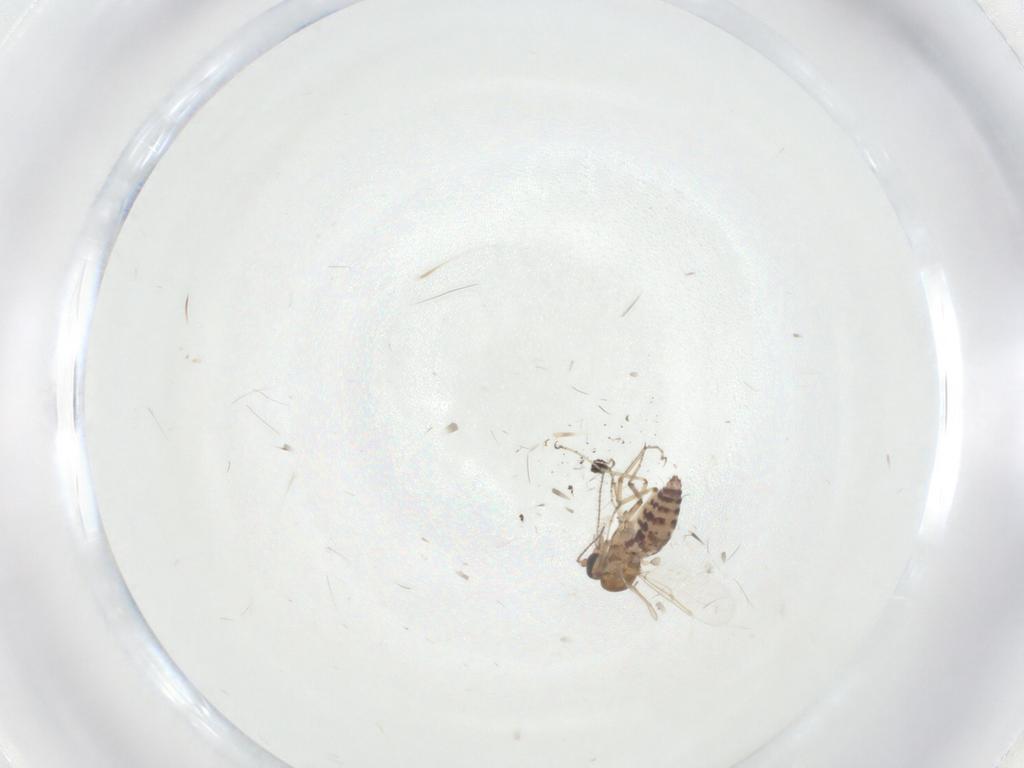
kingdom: Animalia
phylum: Arthropoda
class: Insecta
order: Diptera
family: Ceratopogonidae
